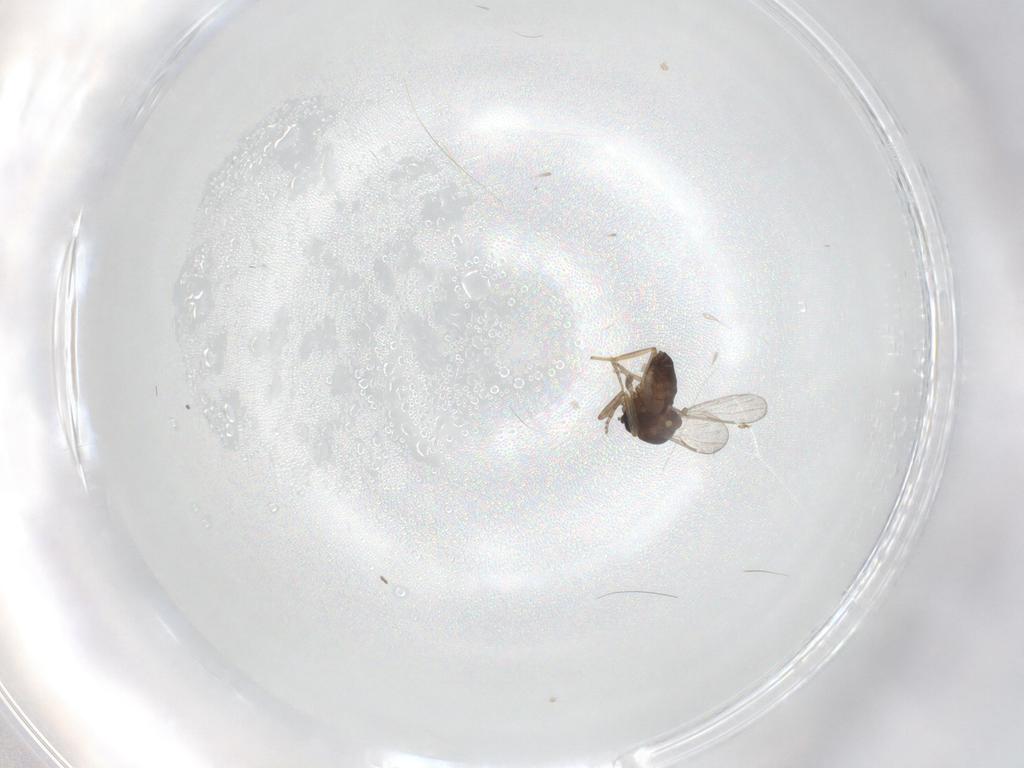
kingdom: Animalia
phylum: Arthropoda
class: Insecta
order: Diptera
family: Ceratopogonidae
